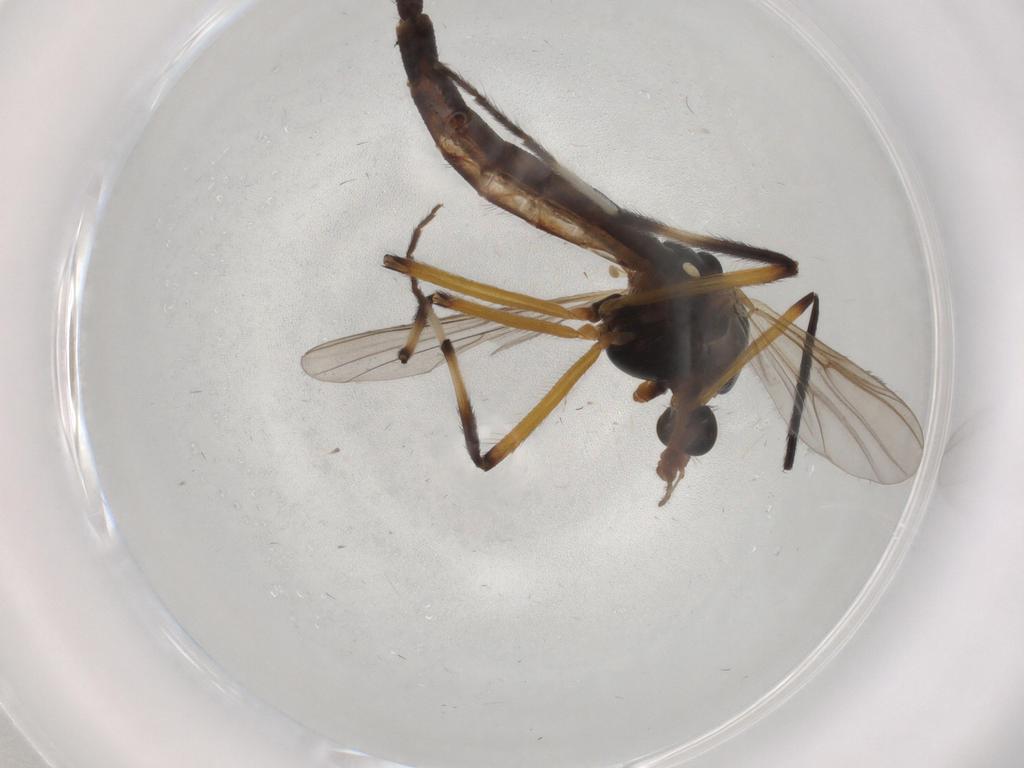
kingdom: Animalia
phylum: Arthropoda
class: Insecta
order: Diptera
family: Chironomidae
